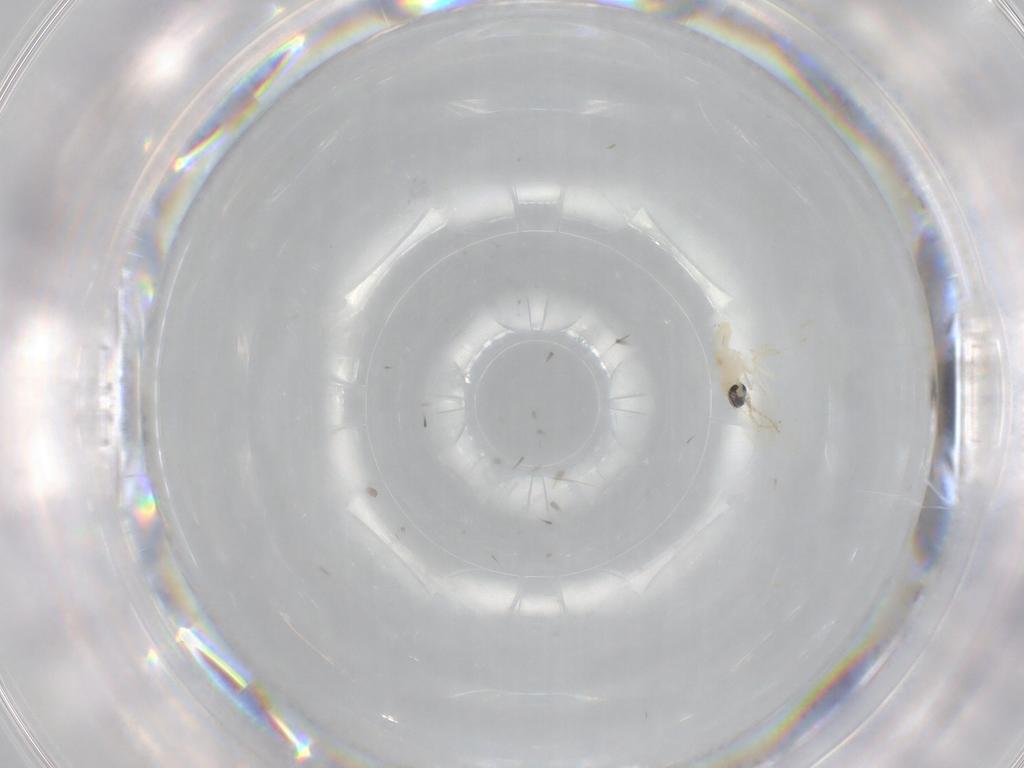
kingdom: Animalia
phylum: Arthropoda
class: Insecta
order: Diptera
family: Cecidomyiidae
